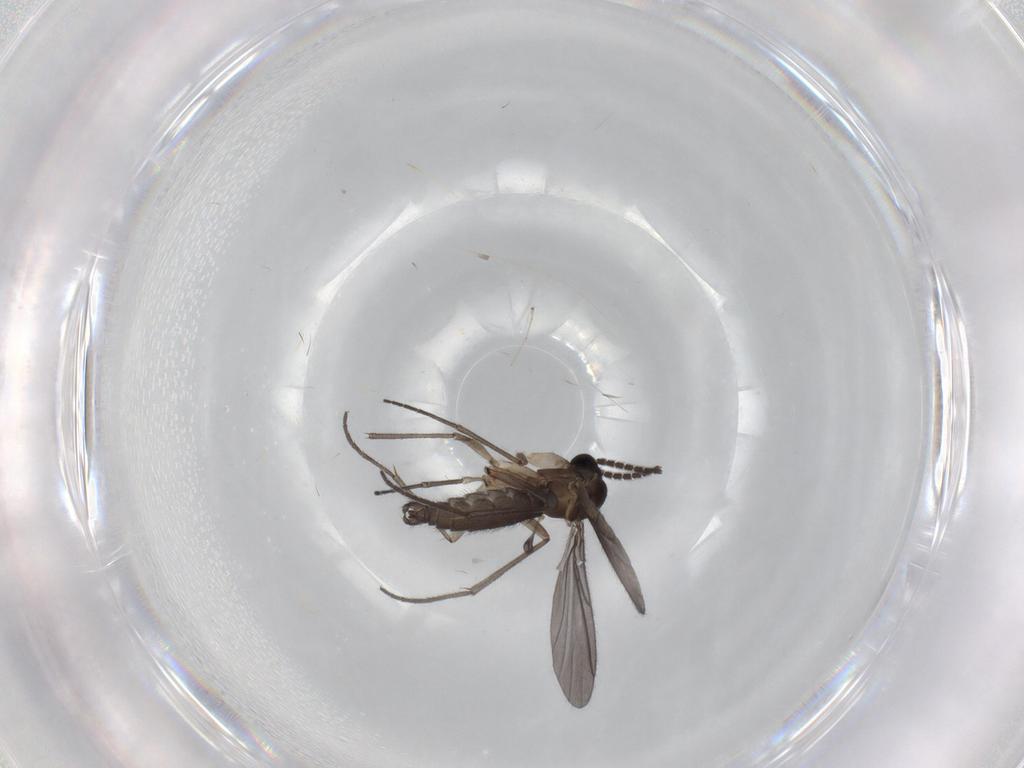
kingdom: Animalia
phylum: Arthropoda
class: Insecta
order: Diptera
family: Sciaridae
